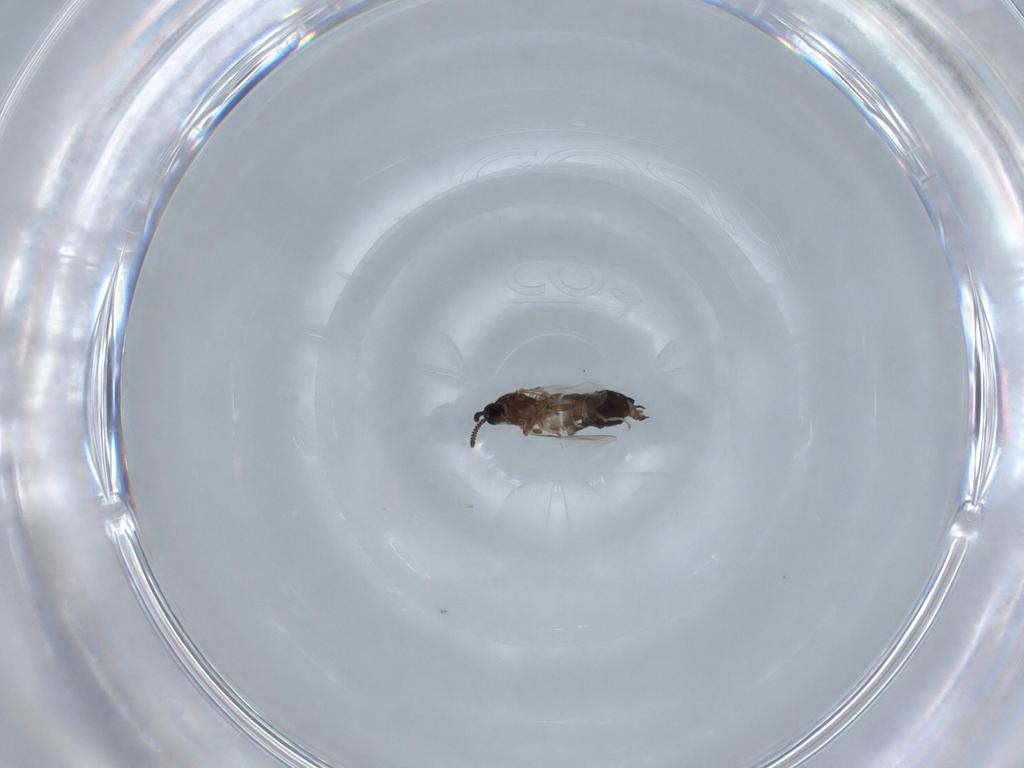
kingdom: Animalia
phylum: Arthropoda
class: Insecta
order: Diptera
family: Scatopsidae
